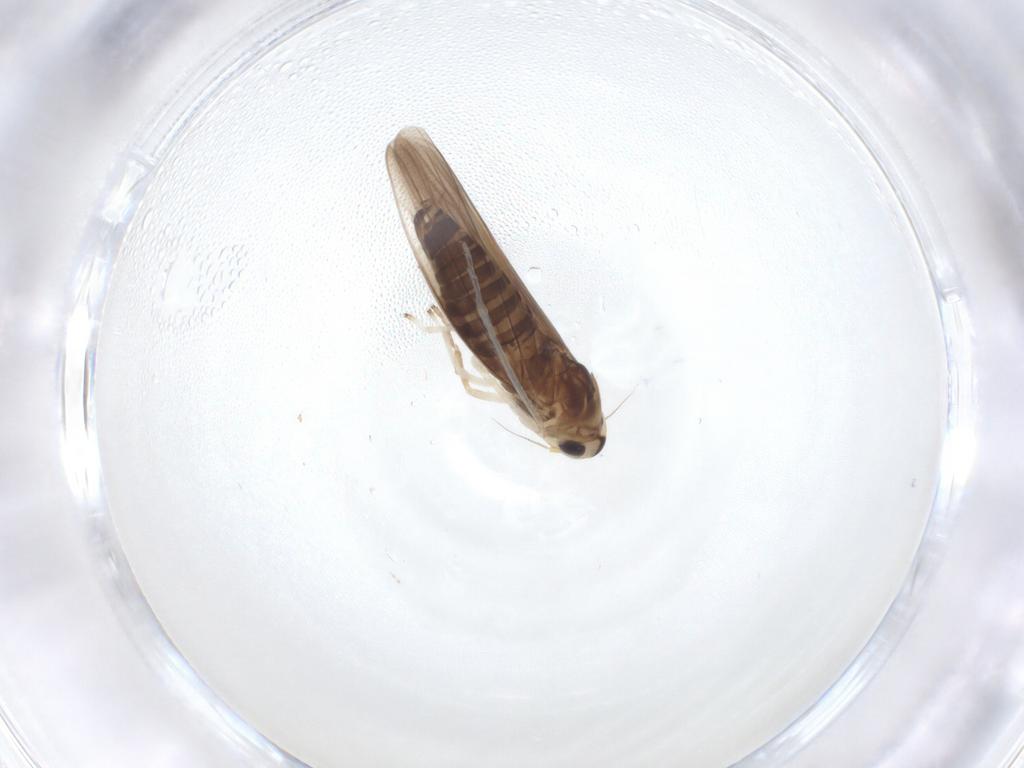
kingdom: Animalia
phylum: Arthropoda
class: Insecta
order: Hemiptera
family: Cicadellidae
